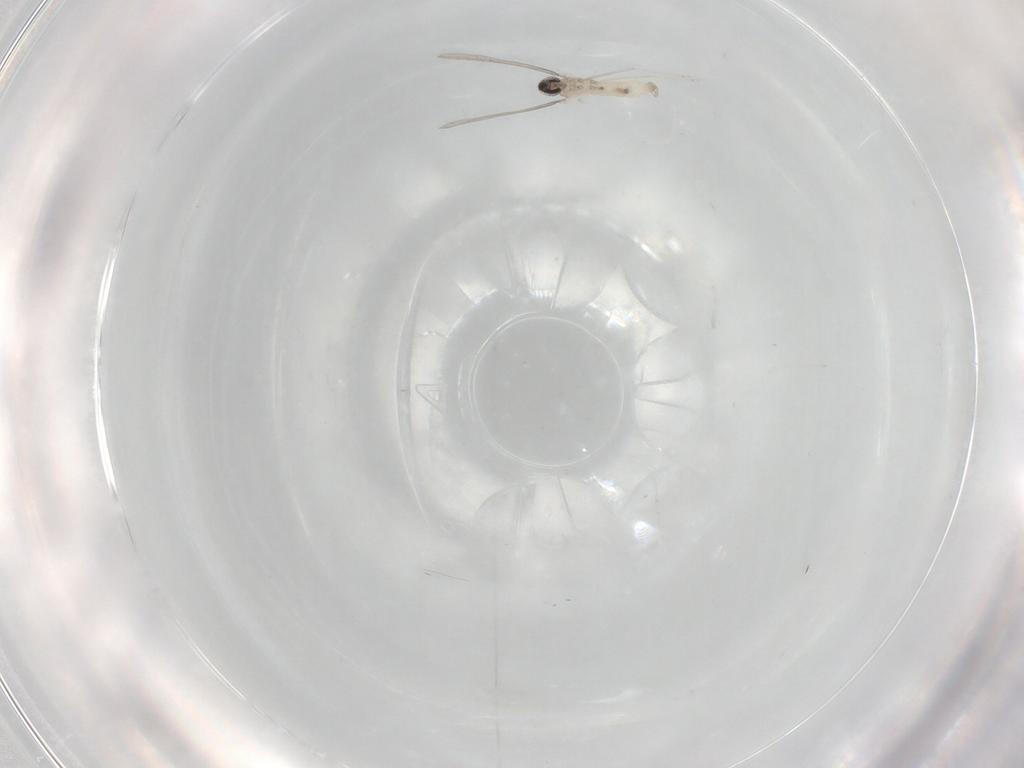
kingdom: Animalia
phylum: Arthropoda
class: Insecta
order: Diptera
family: Cecidomyiidae
